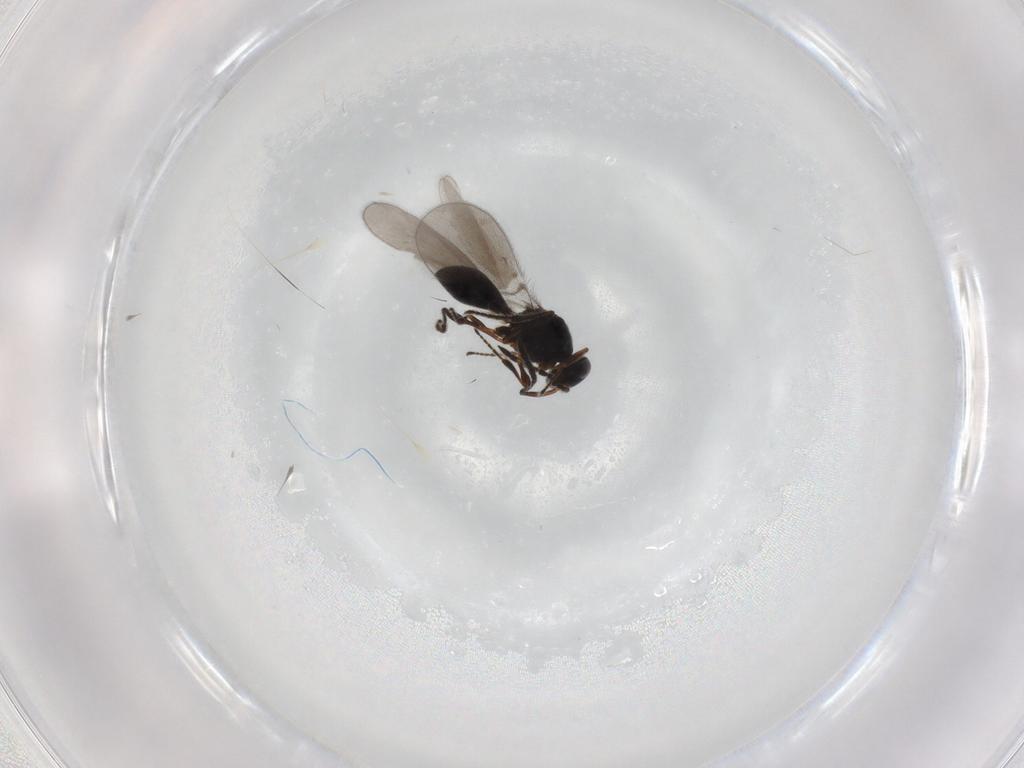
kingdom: Animalia
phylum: Arthropoda
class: Insecta
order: Hymenoptera
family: Platygastridae
